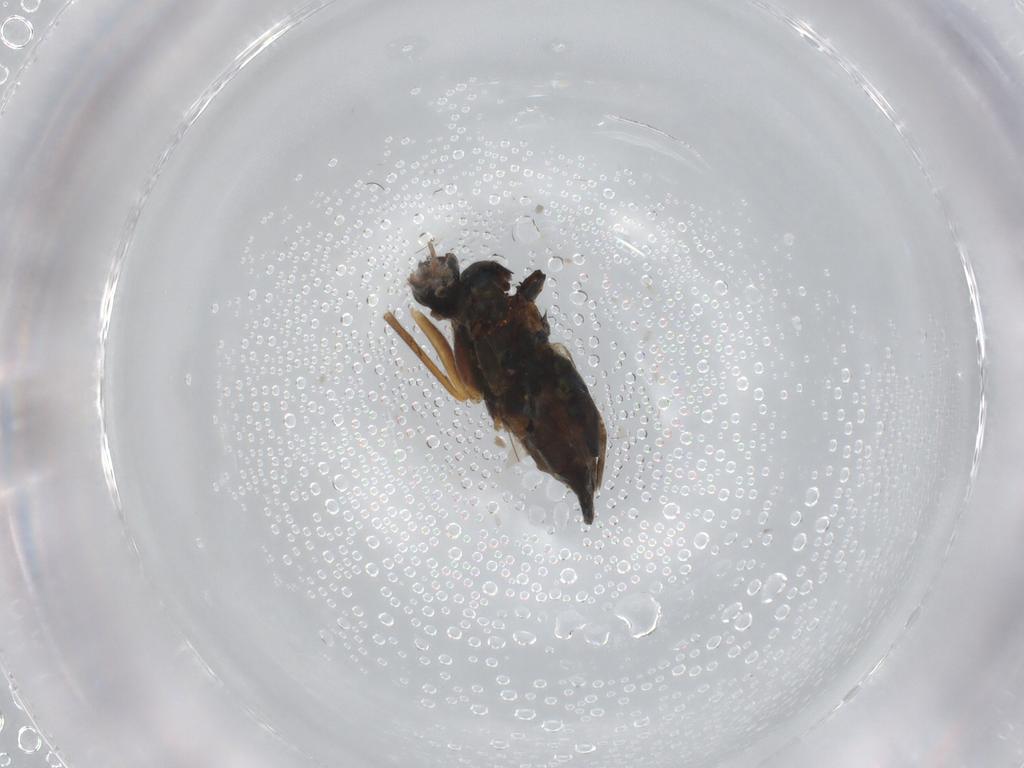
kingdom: Animalia
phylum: Arthropoda
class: Insecta
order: Diptera
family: Dolichopodidae
